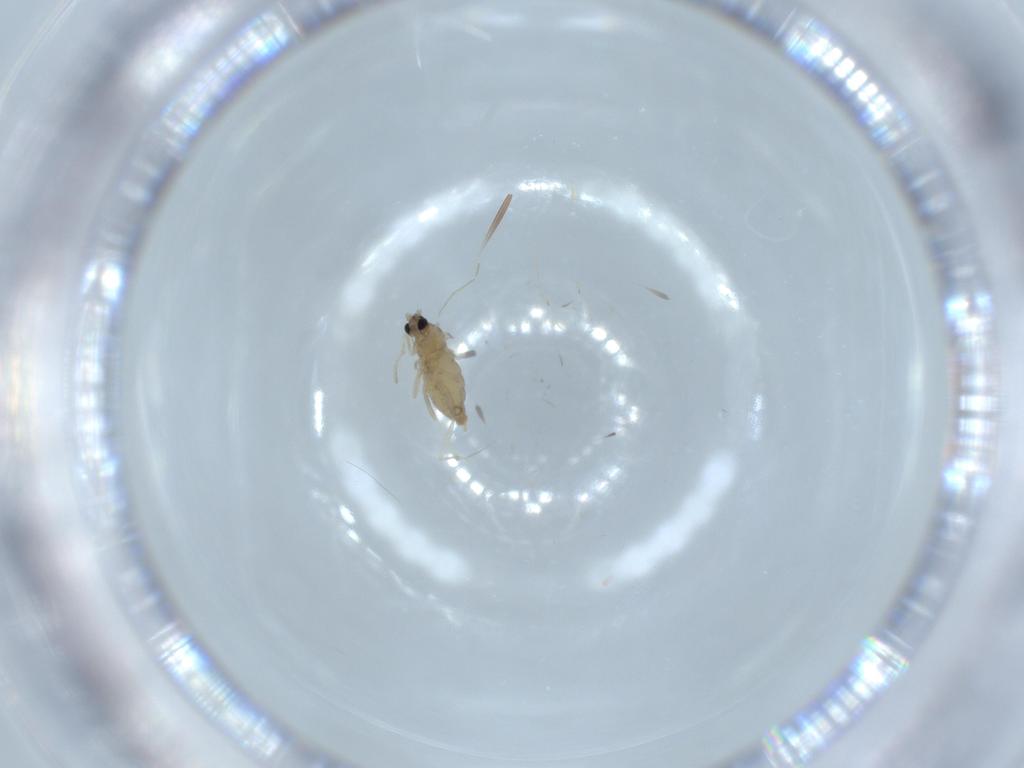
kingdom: Animalia
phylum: Arthropoda
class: Insecta
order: Diptera
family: Cecidomyiidae
